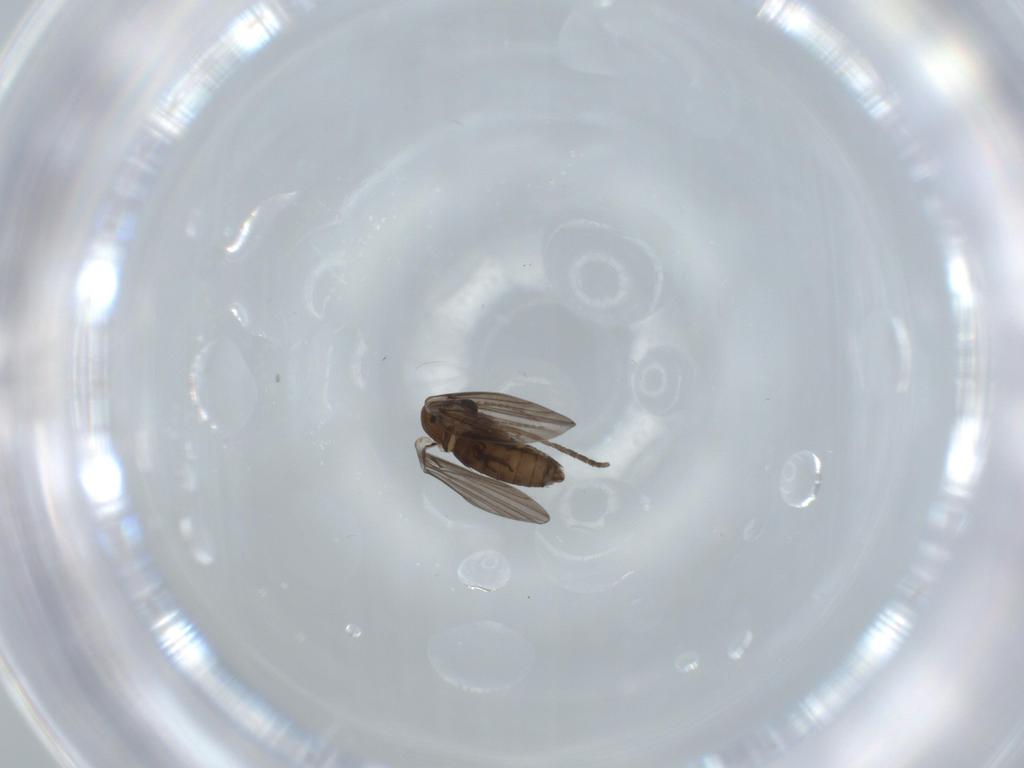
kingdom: Animalia
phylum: Arthropoda
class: Insecta
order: Diptera
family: Psychodidae
